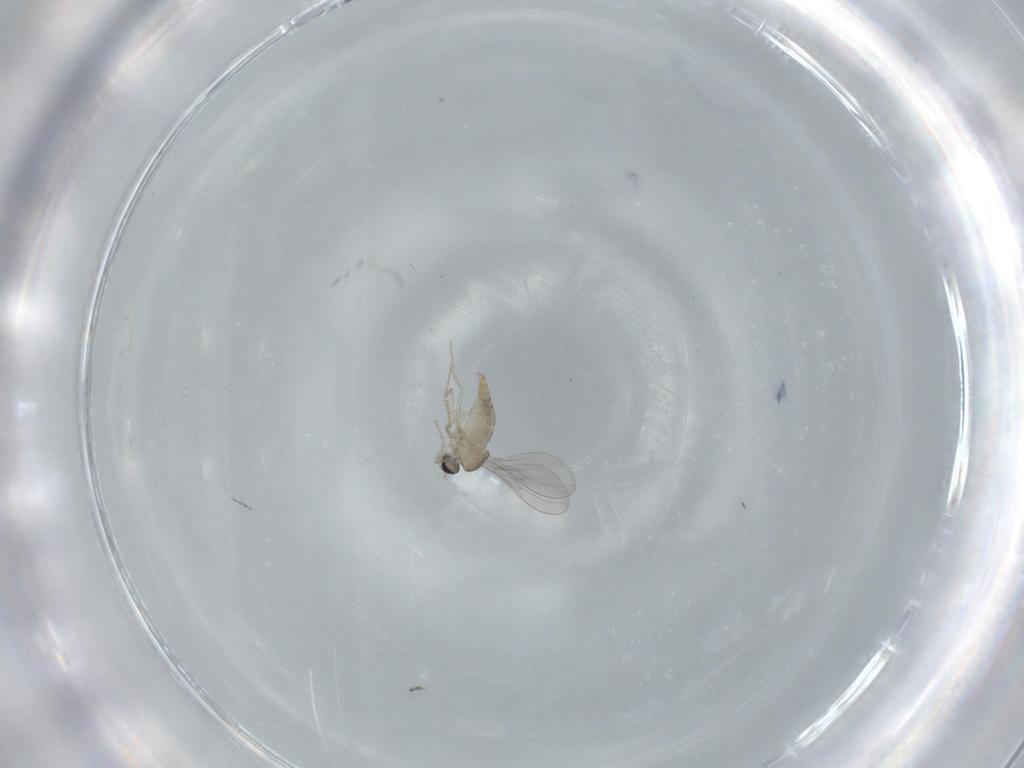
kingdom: Animalia
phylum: Arthropoda
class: Insecta
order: Diptera
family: Cecidomyiidae
